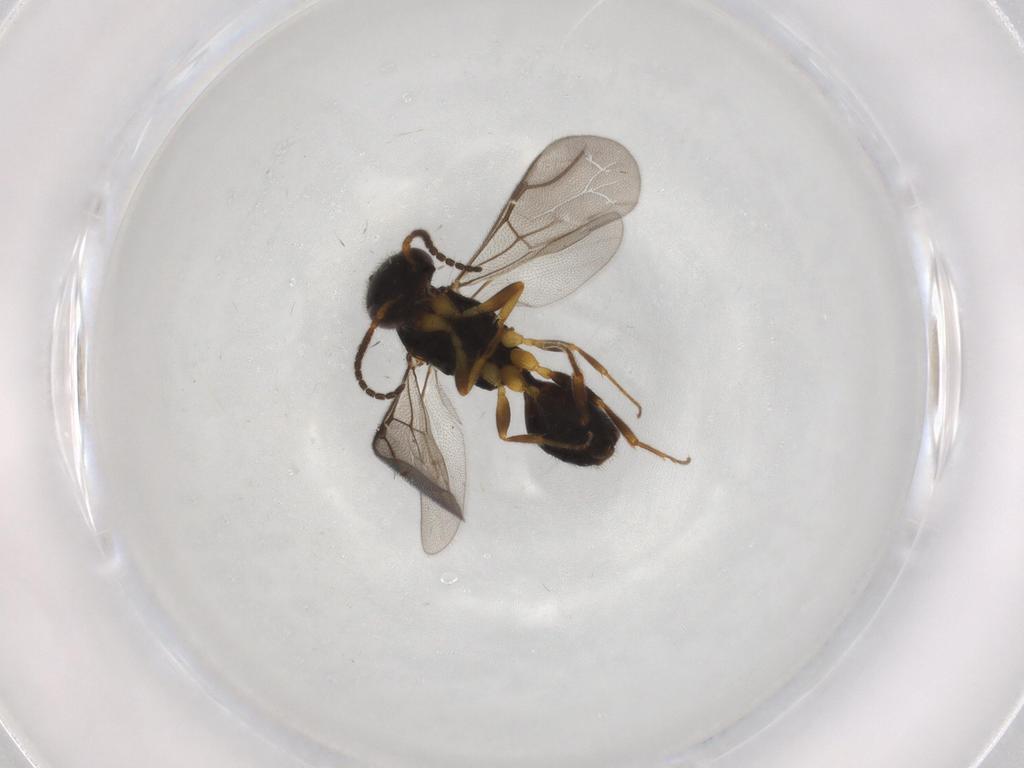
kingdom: Animalia
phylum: Arthropoda
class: Insecta
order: Hymenoptera
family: Bethylidae
